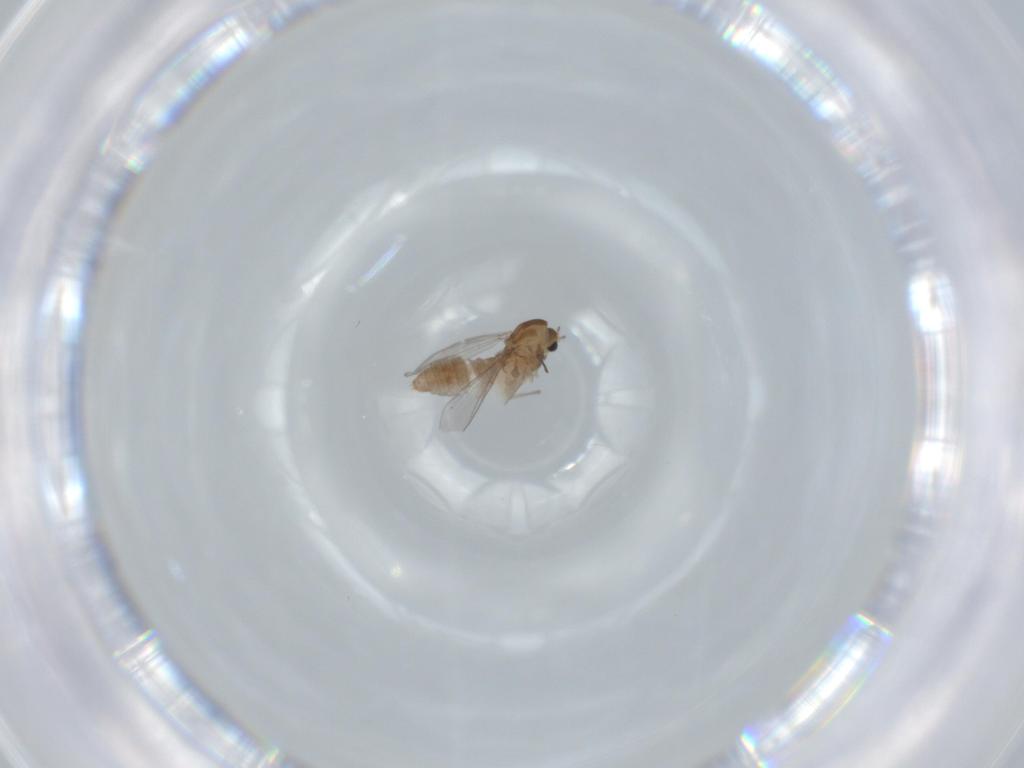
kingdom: Animalia
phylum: Arthropoda
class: Insecta
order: Diptera
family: Chironomidae
